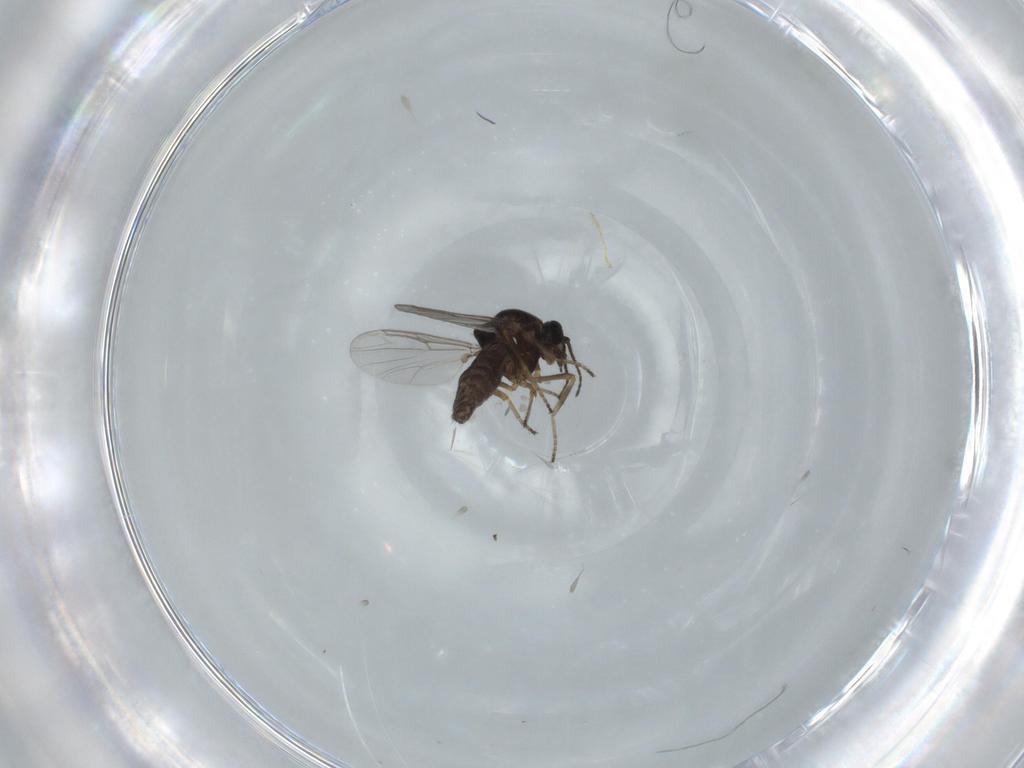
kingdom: Animalia
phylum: Arthropoda
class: Insecta
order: Diptera
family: Ceratopogonidae
